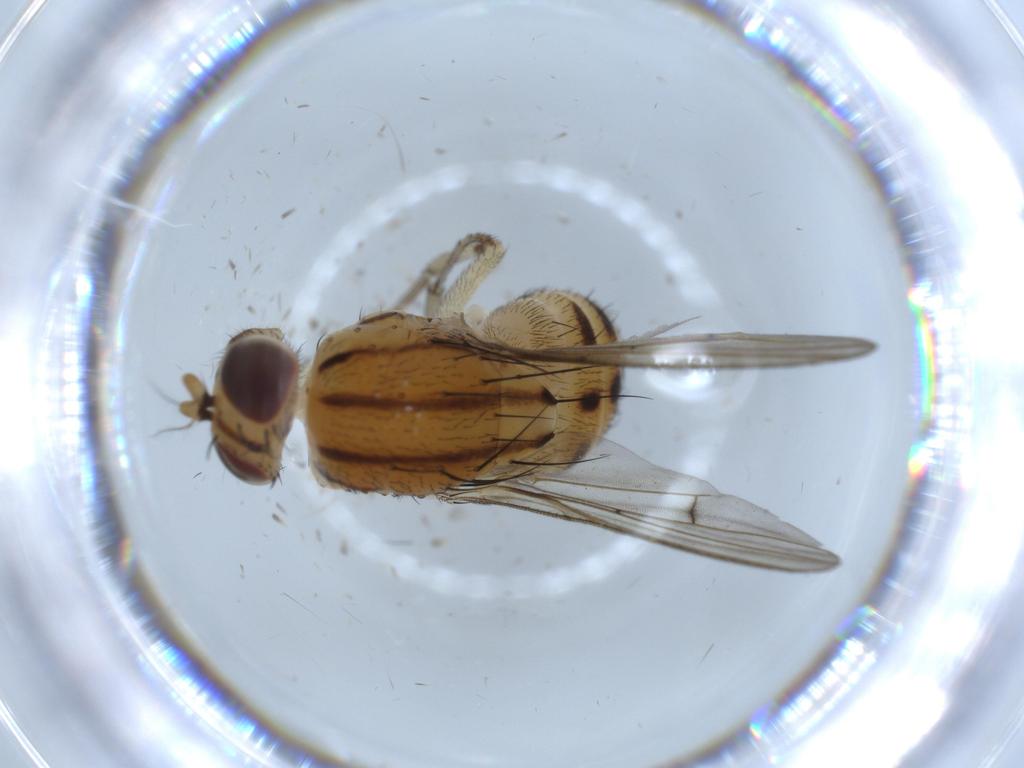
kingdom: Animalia
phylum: Arthropoda
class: Insecta
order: Diptera
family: Lauxaniidae
